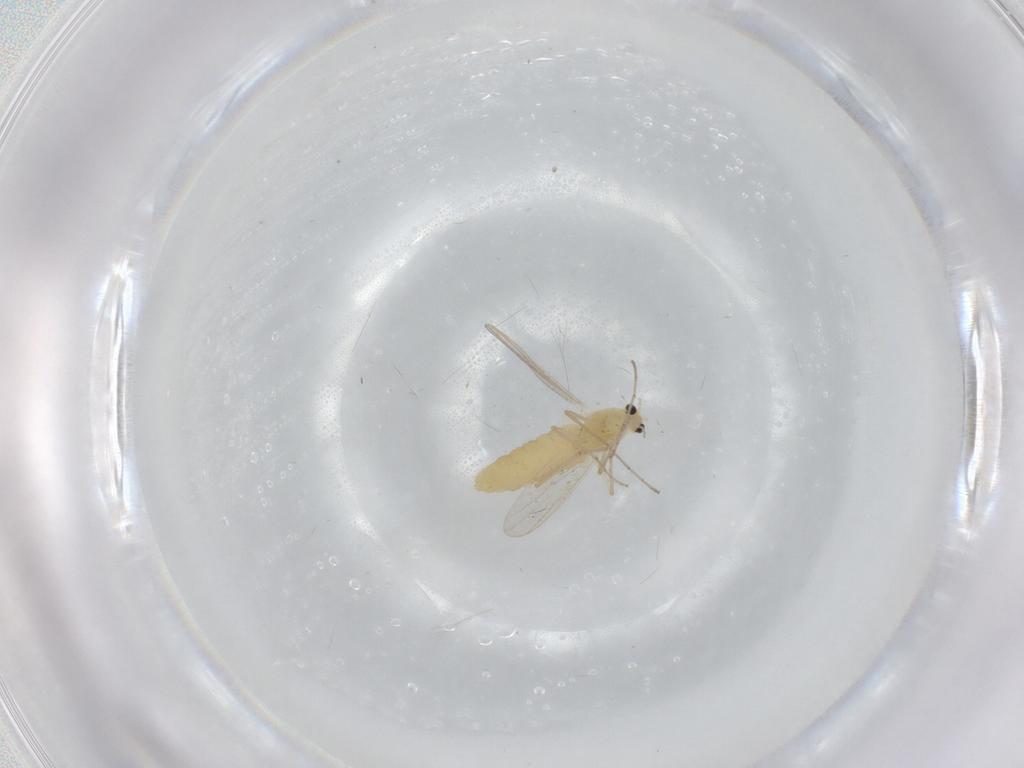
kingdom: Animalia
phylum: Arthropoda
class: Insecta
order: Diptera
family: Chironomidae
